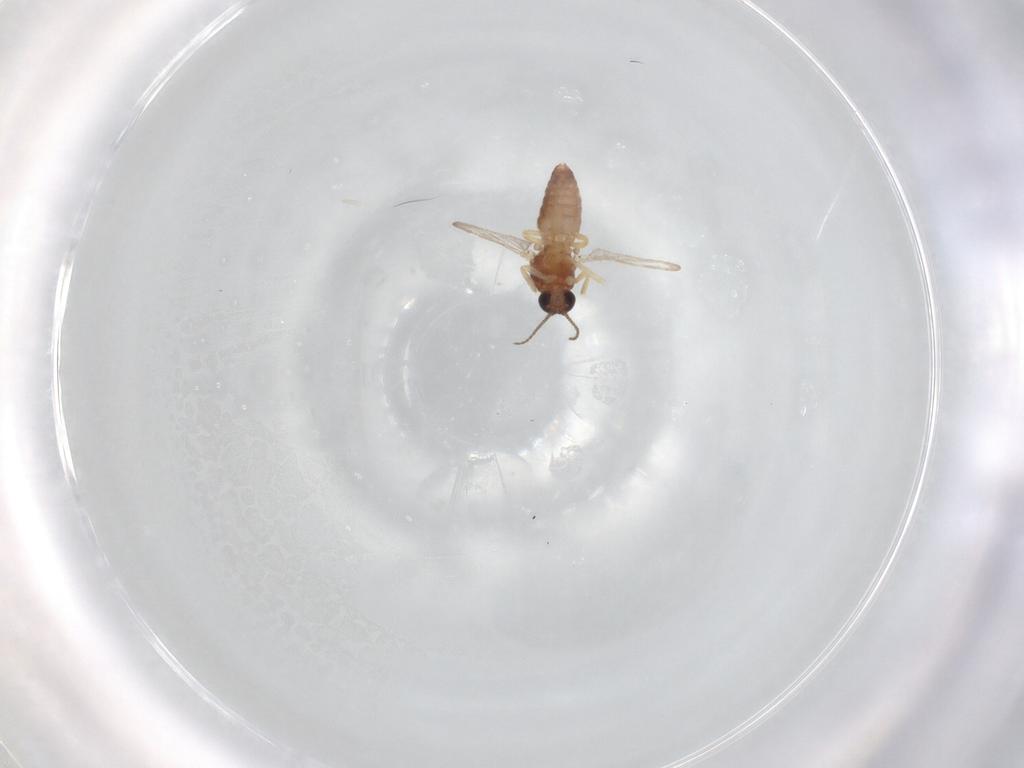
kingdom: Animalia
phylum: Arthropoda
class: Insecta
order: Diptera
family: Ceratopogonidae
